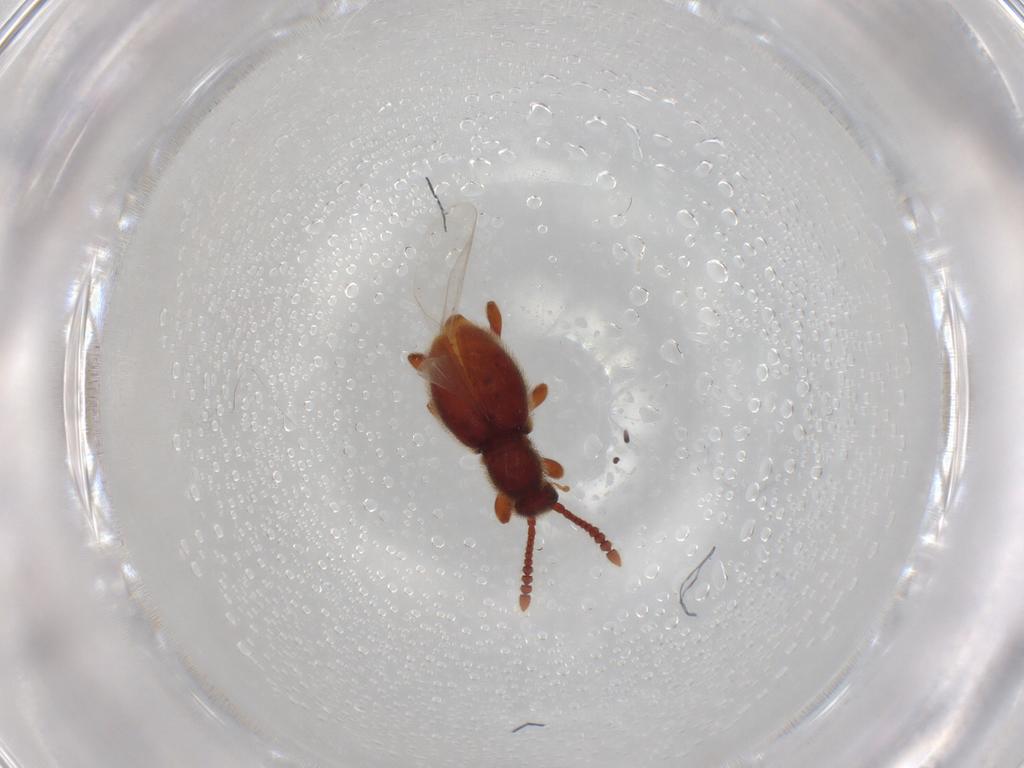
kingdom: Animalia
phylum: Arthropoda
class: Insecta
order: Coleoptera
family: Staphylinidae
